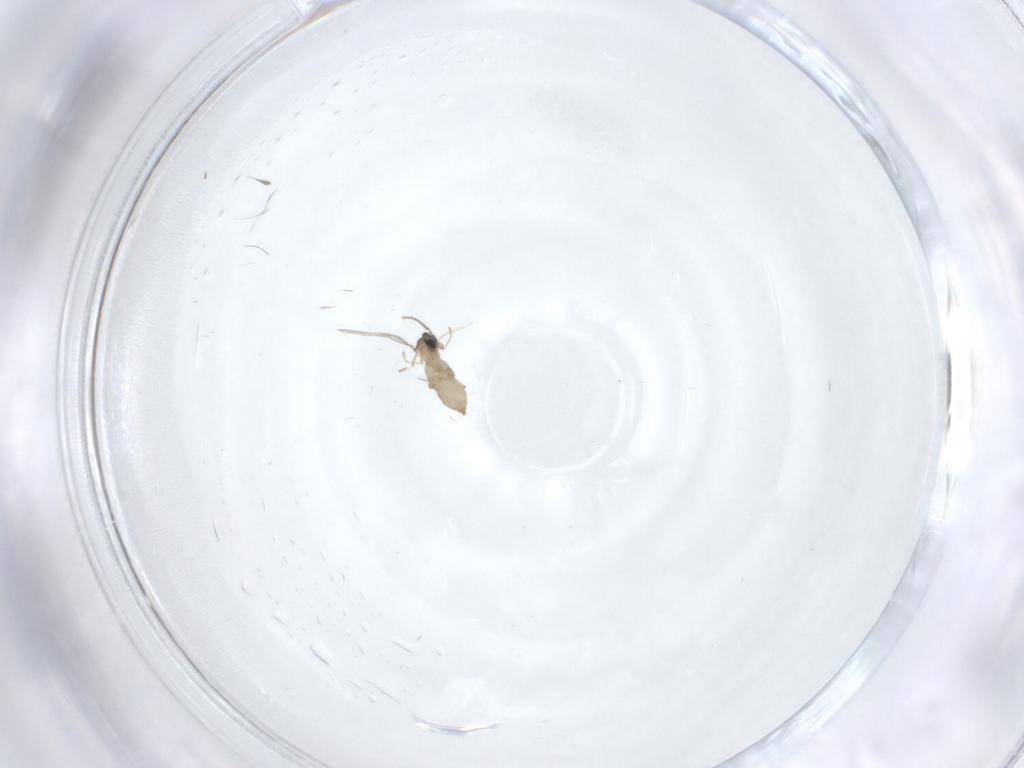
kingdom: Animalia
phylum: Arthropoda
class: Insecta
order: Diptera
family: Cecidomyiidae
